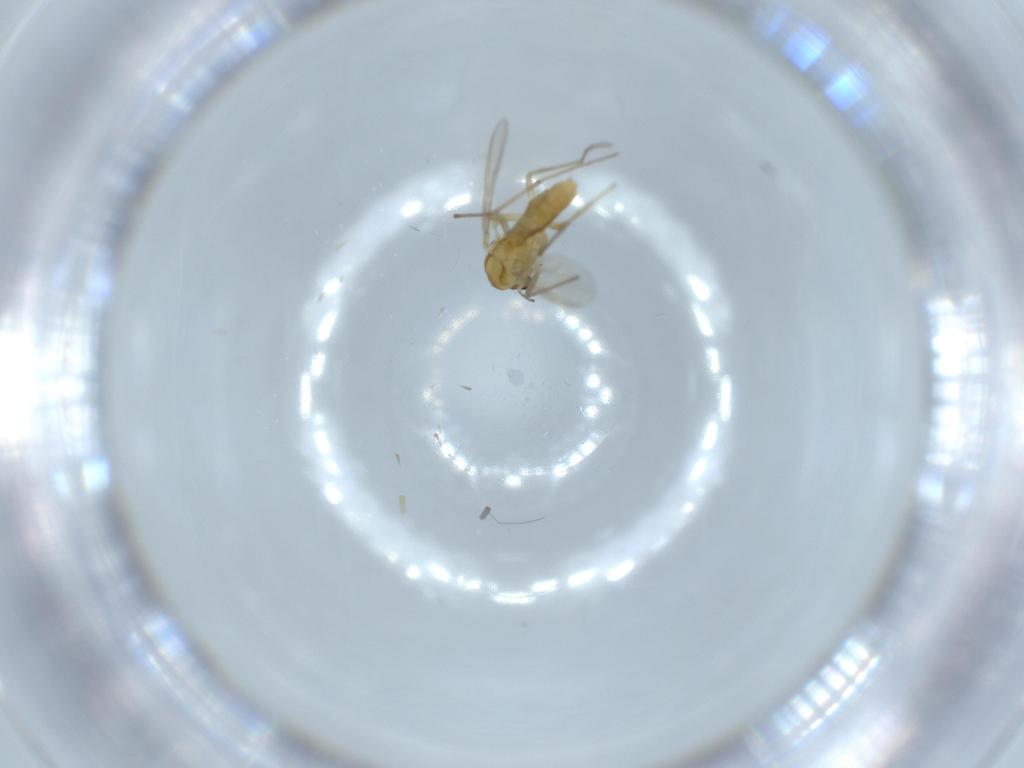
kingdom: Animalia
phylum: Arthropoda
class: Insecta
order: Diptera
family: Chironomidae
